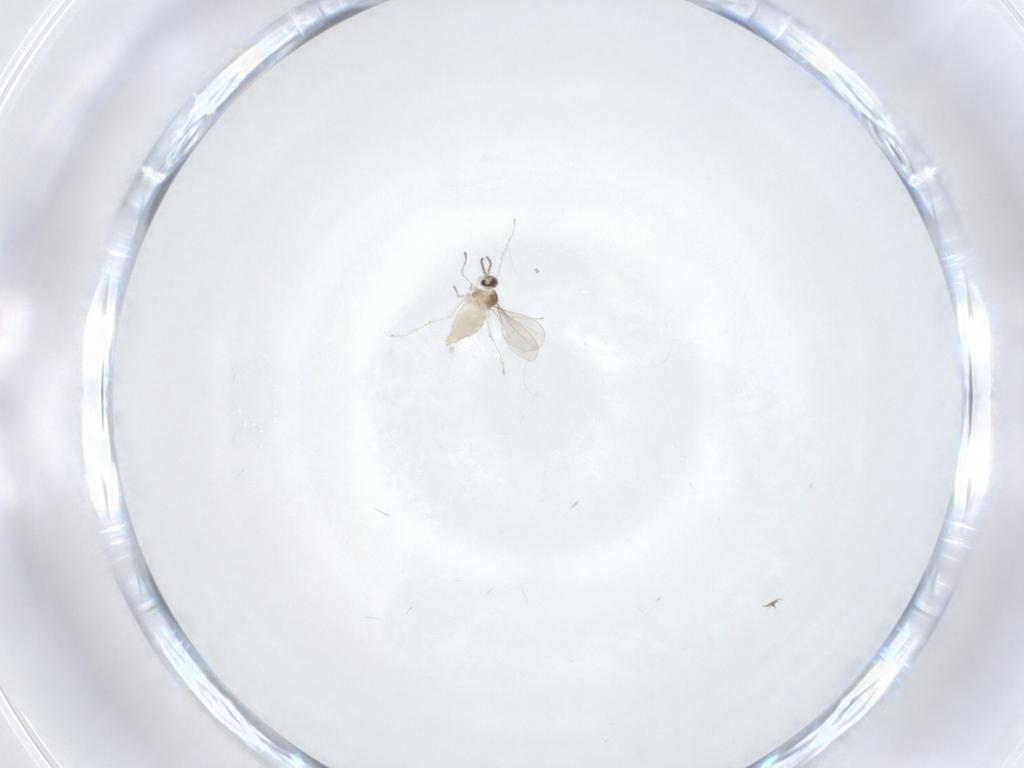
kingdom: Animalia
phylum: Arthropoda
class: Insecta
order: Diptera
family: Cecidomyiidae
